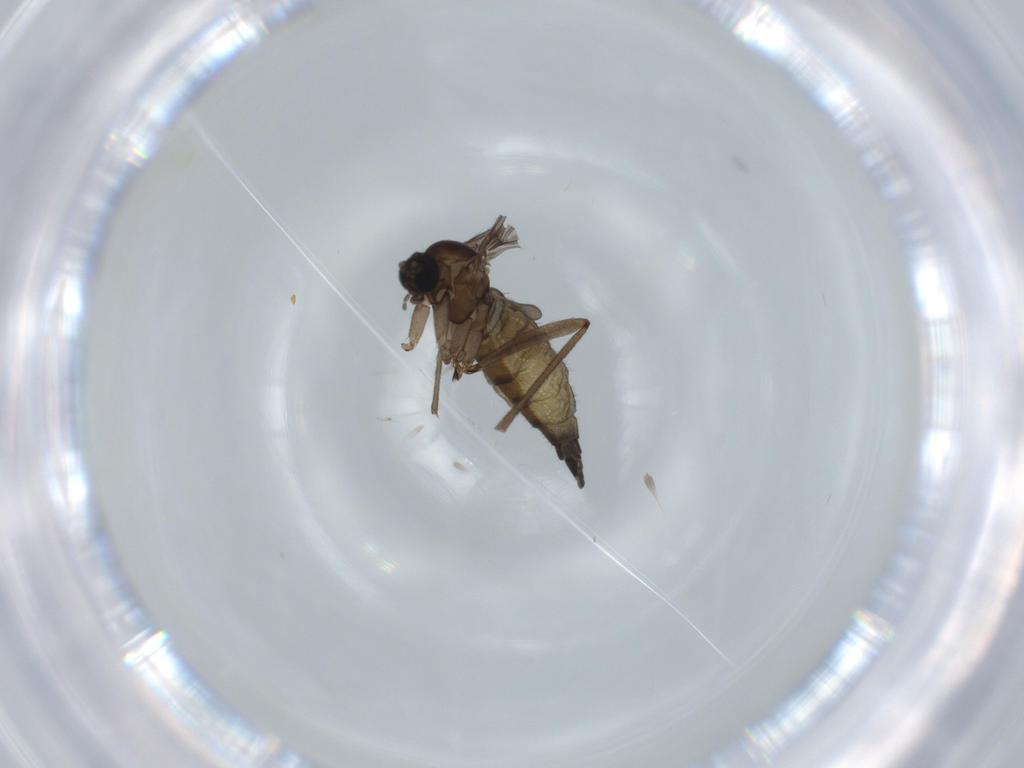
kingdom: Animalia
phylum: Arthropoda
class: Insecta
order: Diptera
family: Sciaridae
